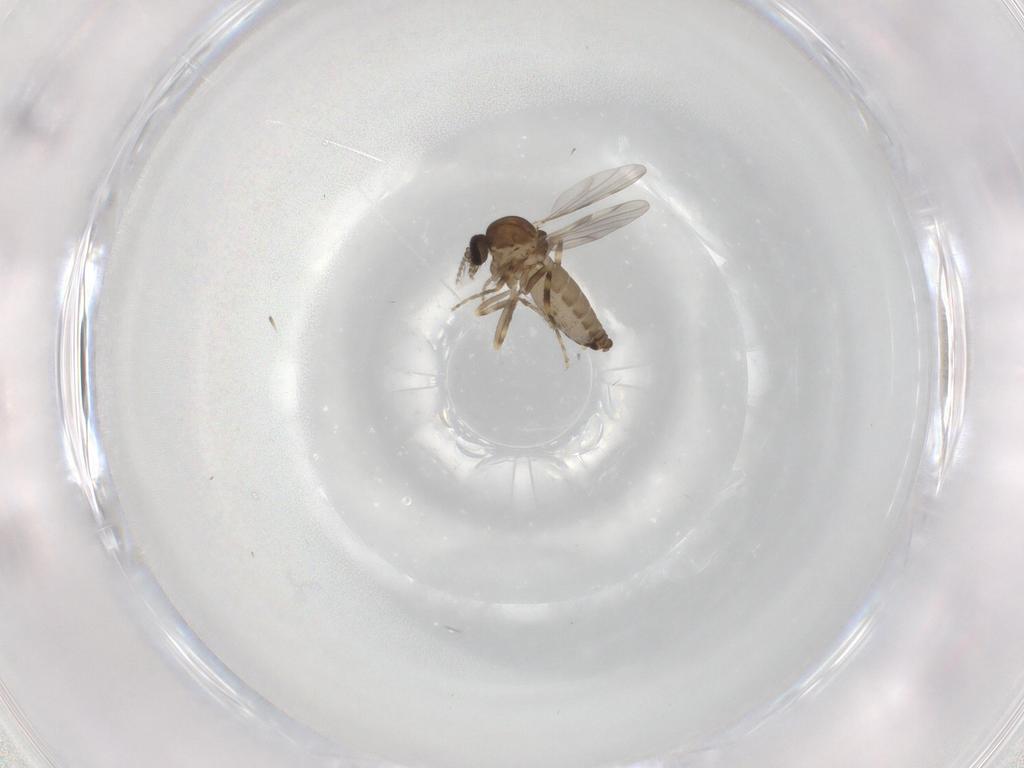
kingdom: Animalia
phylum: Arthropoda
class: Insecta
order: Diptera
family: Ceratopogonidae
